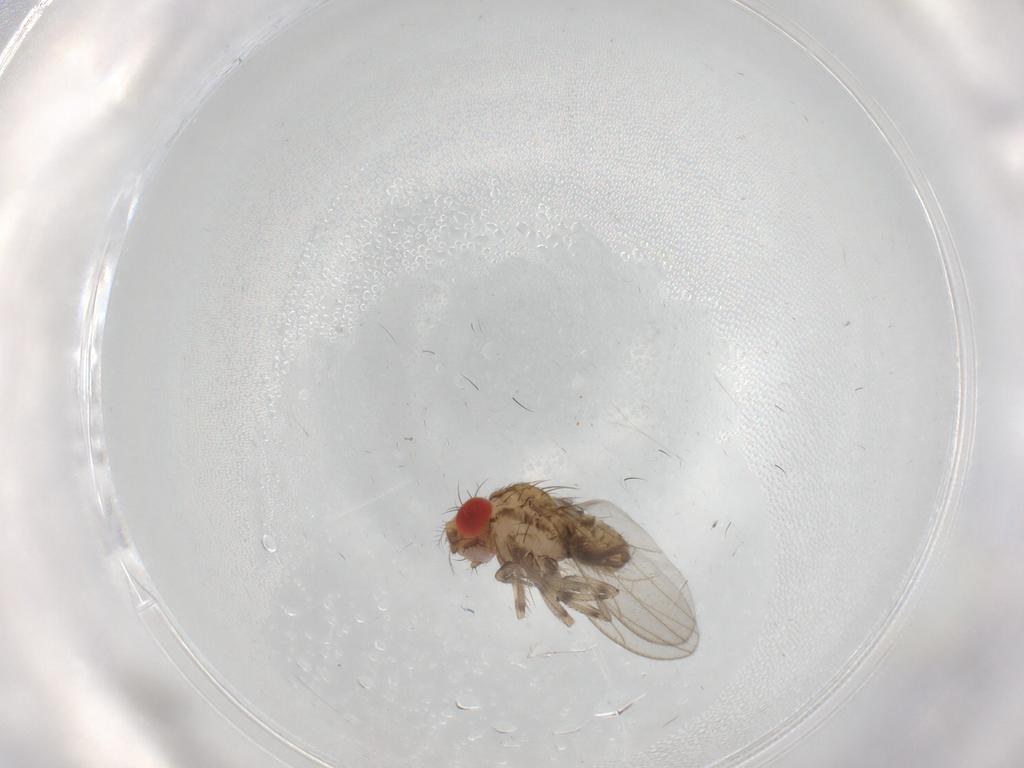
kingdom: Animalia
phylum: Arthropoda
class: Insecta
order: Diptera
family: Drosophilidae
